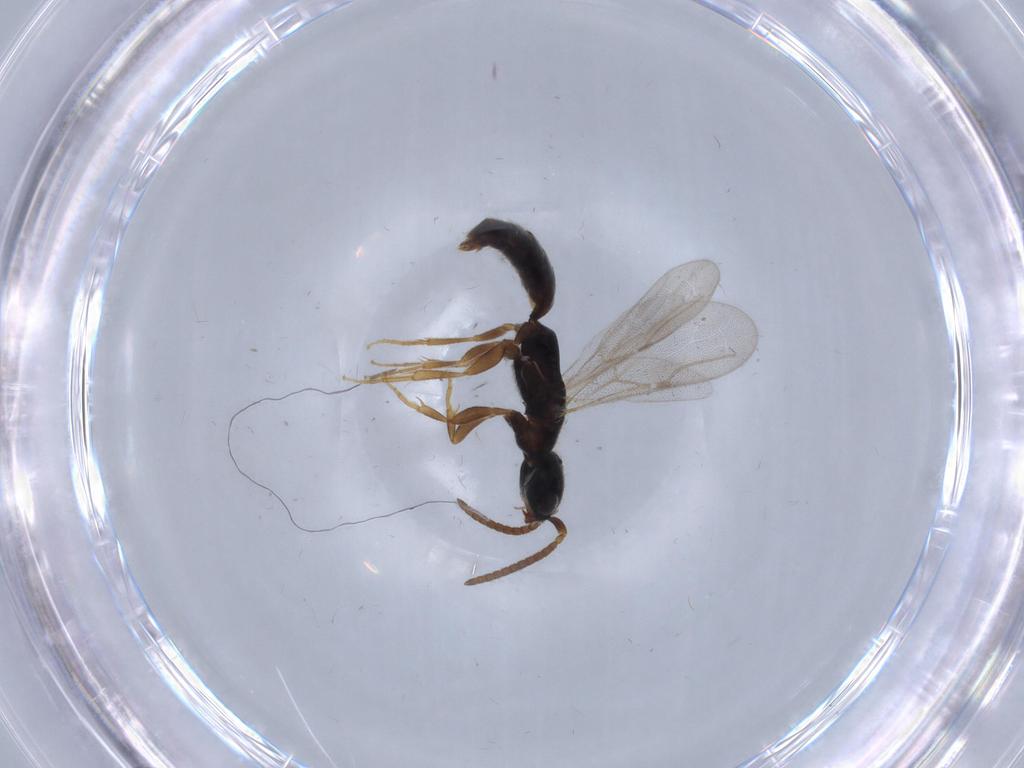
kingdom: Animalia
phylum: Arthropoda
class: Insecta
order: Hymenoptera
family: Bethylidae
